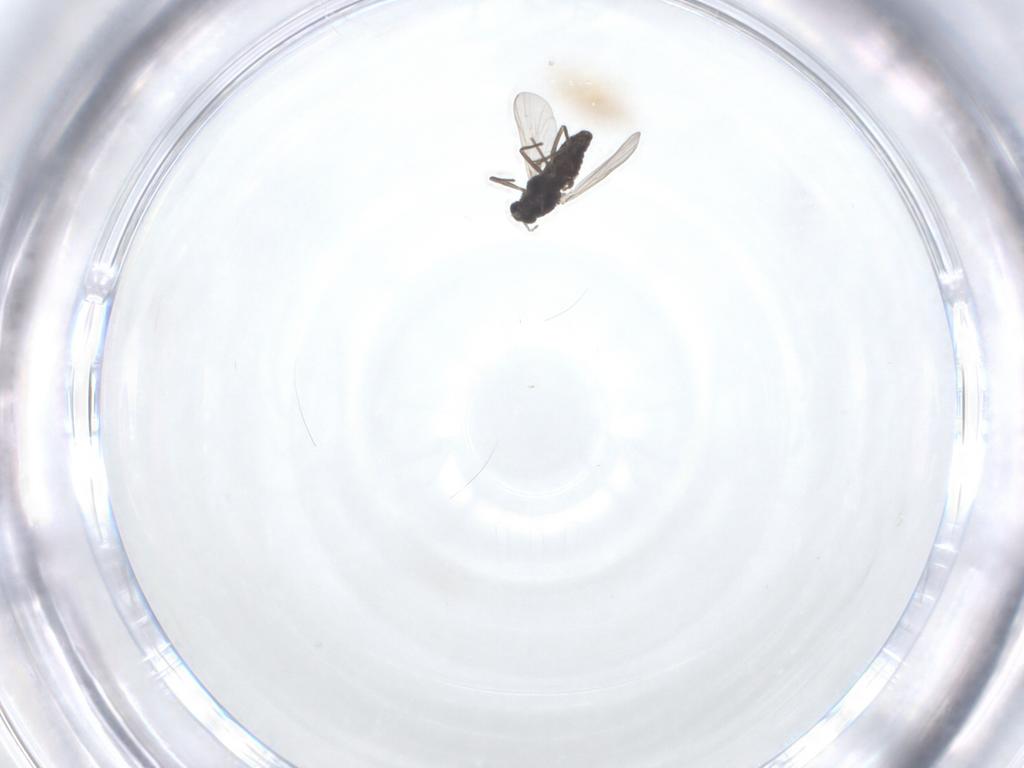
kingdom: Animalia
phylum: Arthropoda
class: Insecta
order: Diptera
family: Chironomidae
